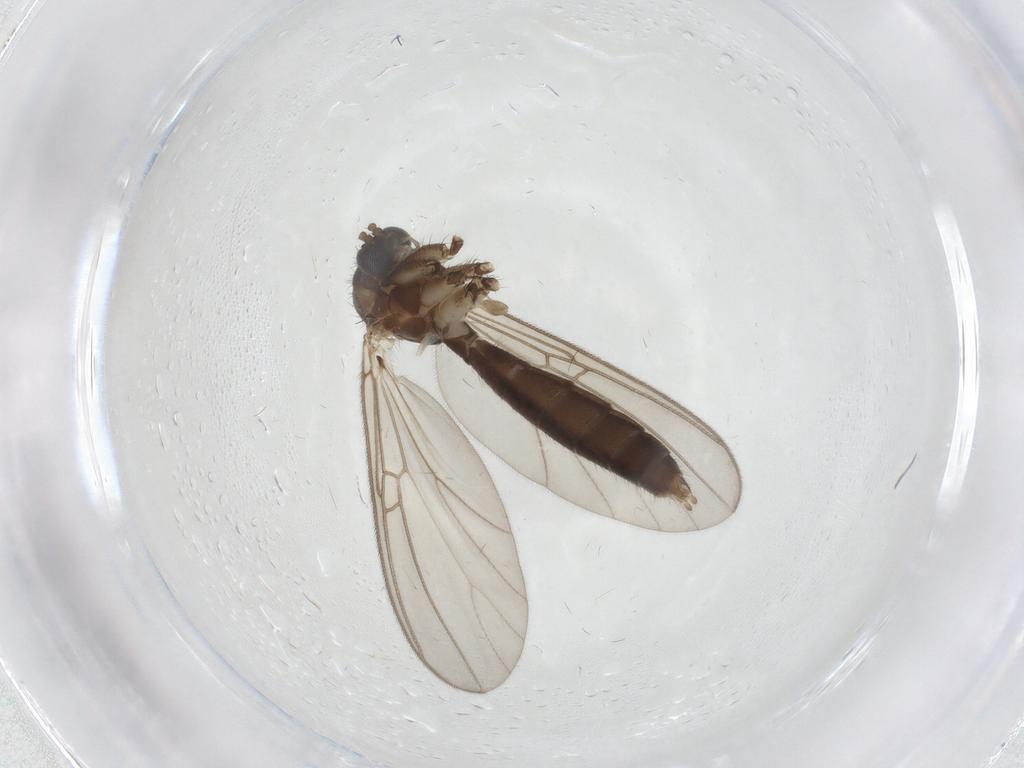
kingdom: Animalia
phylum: Arthropoda
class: Insecta
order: Diptera
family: Mycetophilidae
